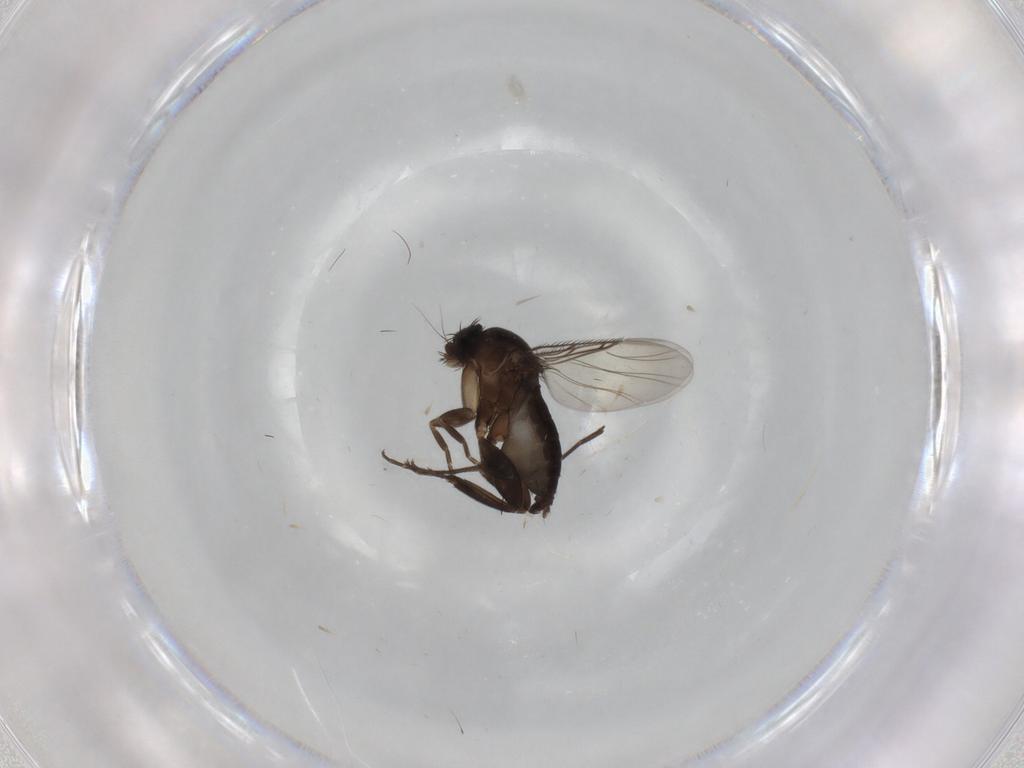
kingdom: Animalia
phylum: Arthropoda
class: Insecta
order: Diptera
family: Phoridae
